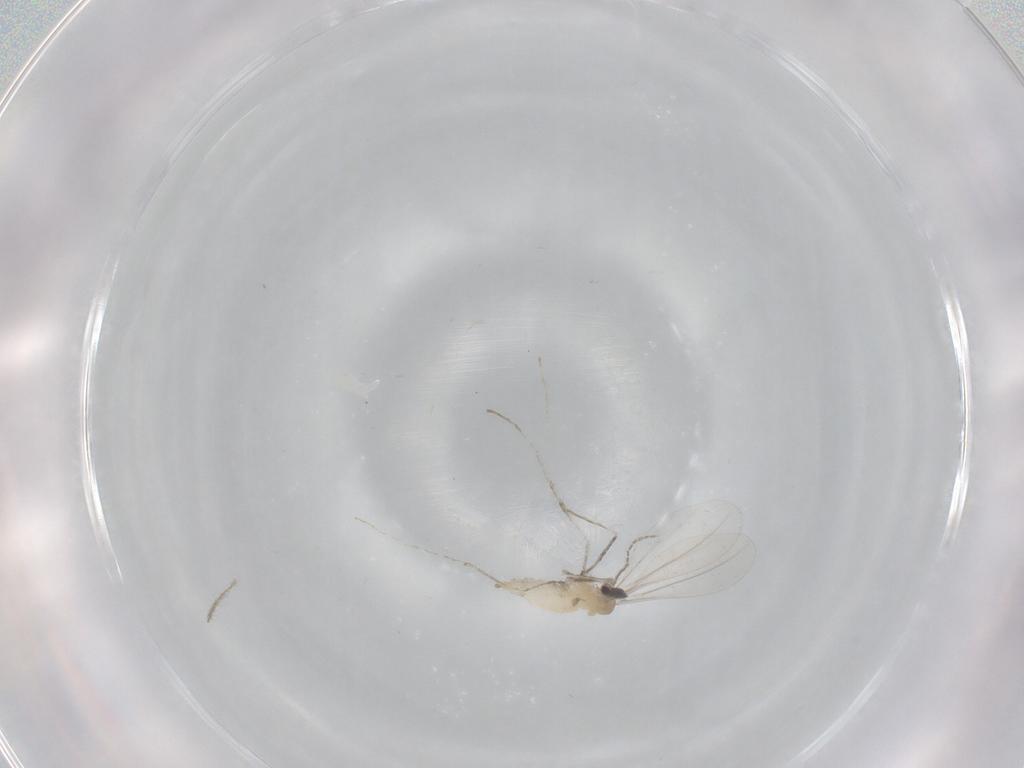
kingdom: Animalia
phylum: Arthropoda
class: Insecta
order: Diptera
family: Cecidomyiidae
